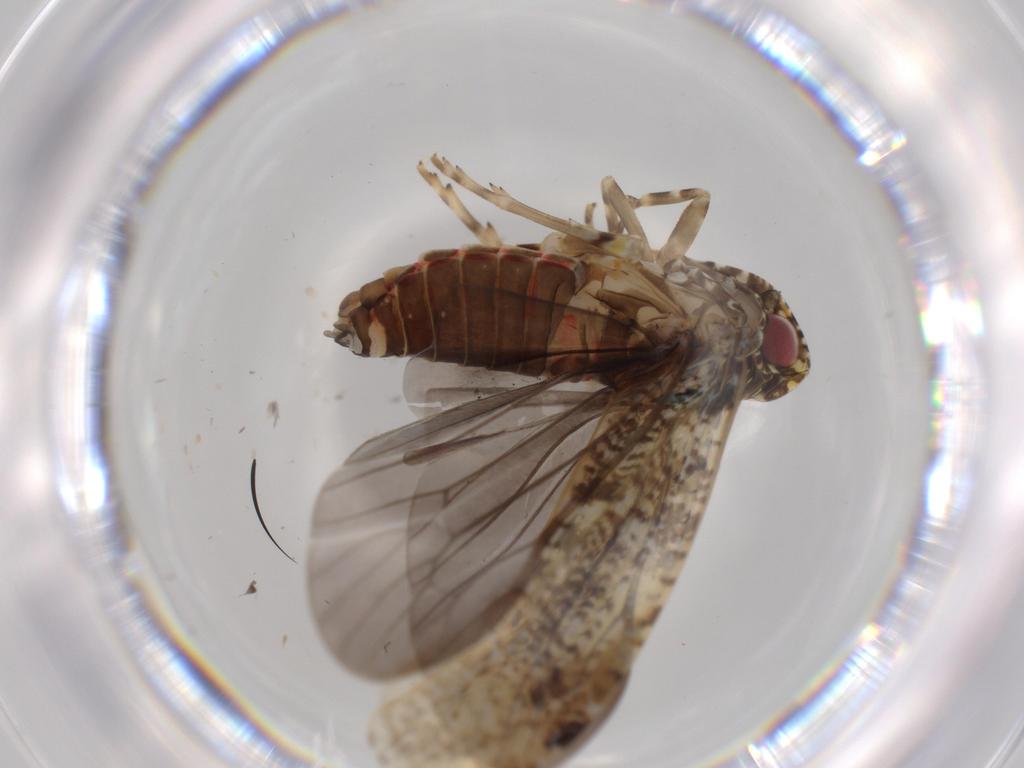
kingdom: Animalia
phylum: Arthropoda
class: Insecta
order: Hemiptera
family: Achilidae
